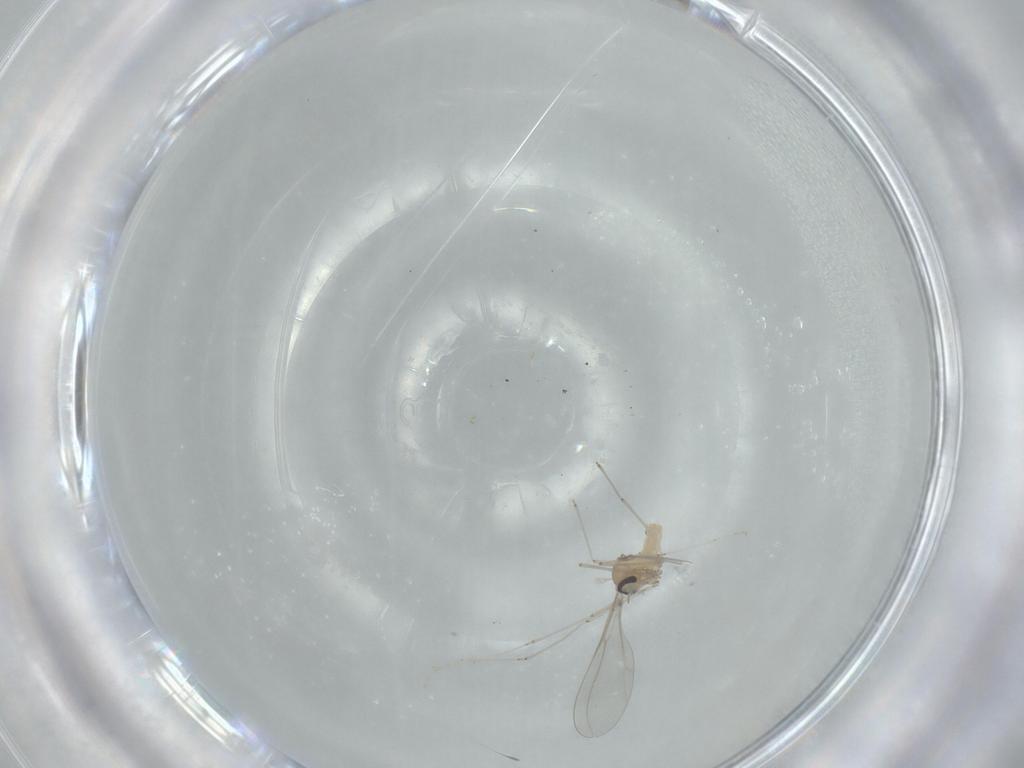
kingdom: Animalia
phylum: Arthropoda
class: Insecta
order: Diptera
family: Cecidomyiidae
